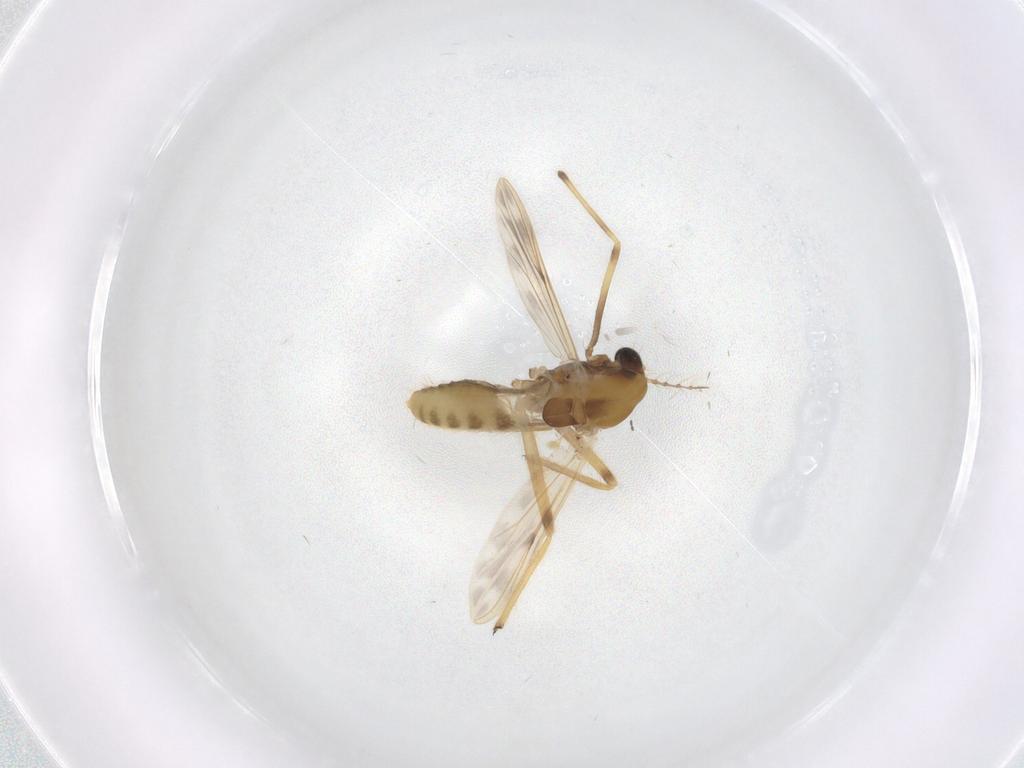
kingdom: Animalia
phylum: Arthropoda
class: Insecta
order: Diptera
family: Chironomidae
